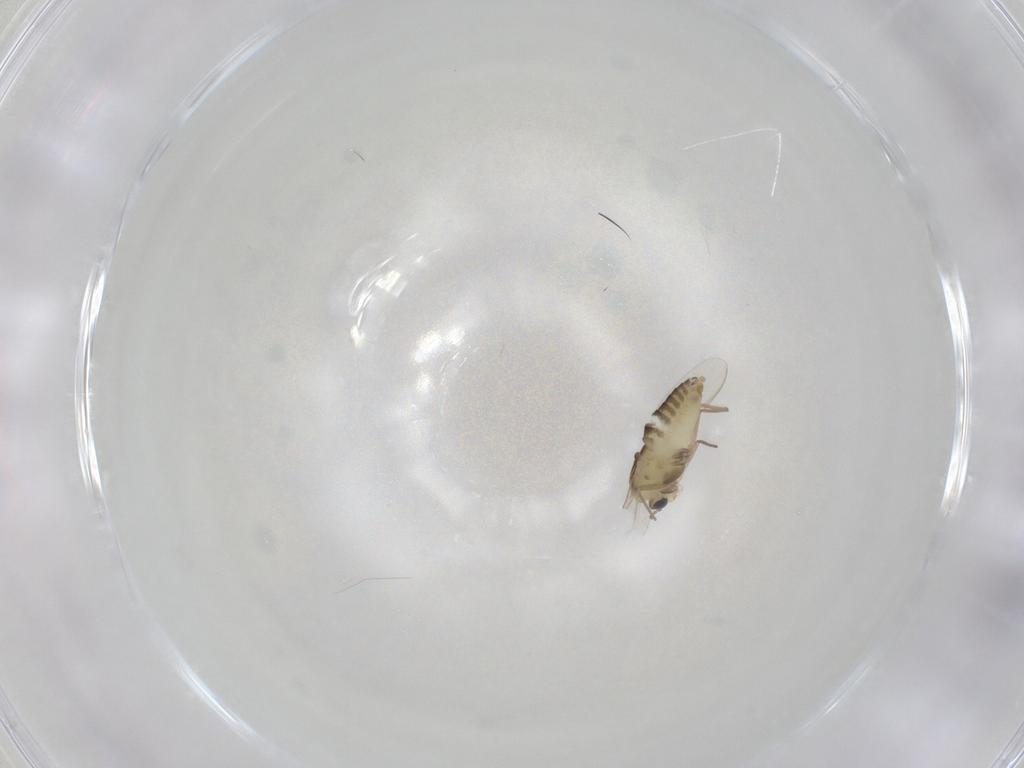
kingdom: Animalia
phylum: Arthropoda
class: Insecta
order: Diptera
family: Chironomidae
